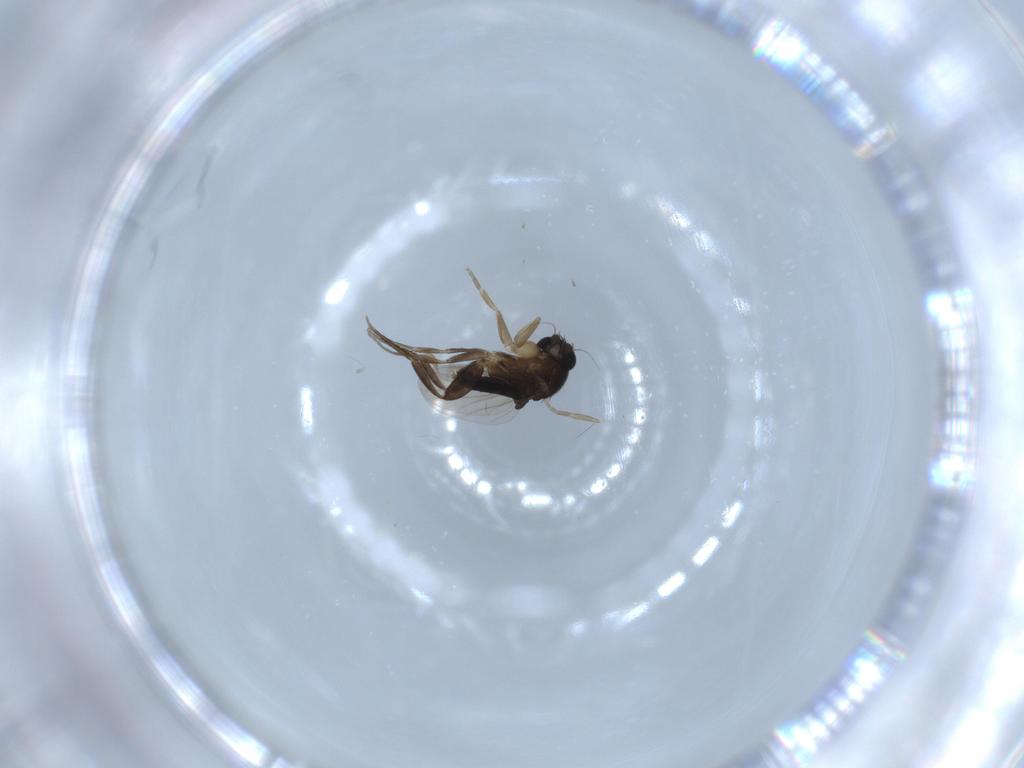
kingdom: Animalia
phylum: Arthropoda
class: Insecta
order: Diptera
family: Phoridae
